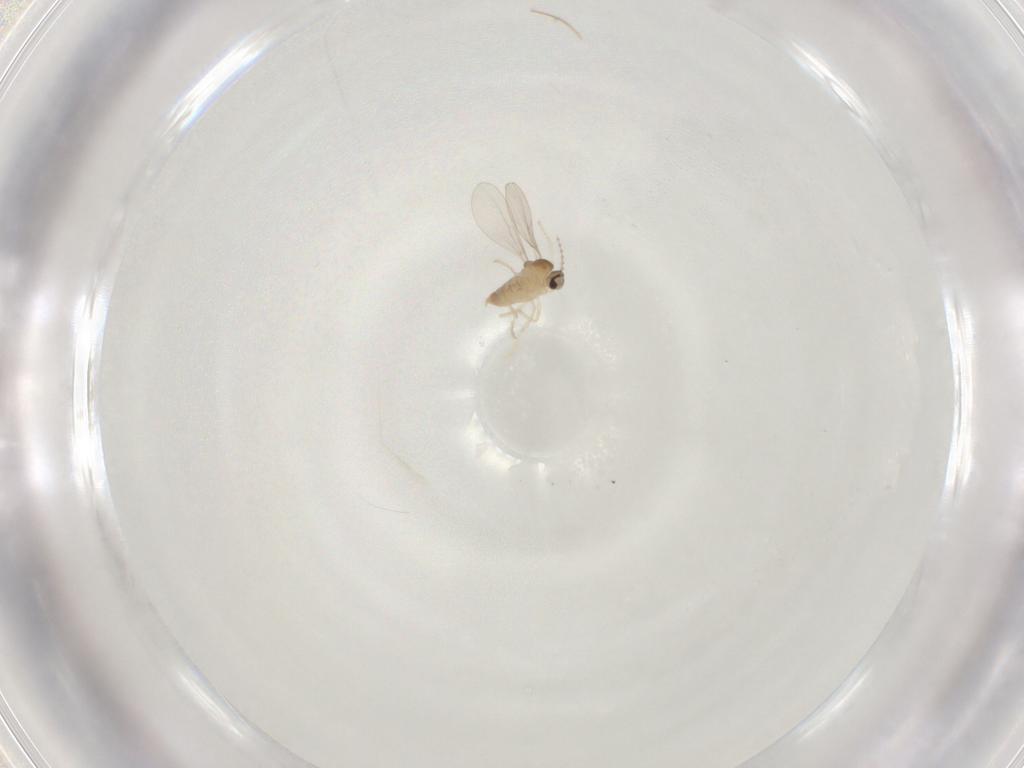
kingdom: Animalia
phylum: Arthropoda
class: Insecta
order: Diptera
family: Cecidomyiidae
